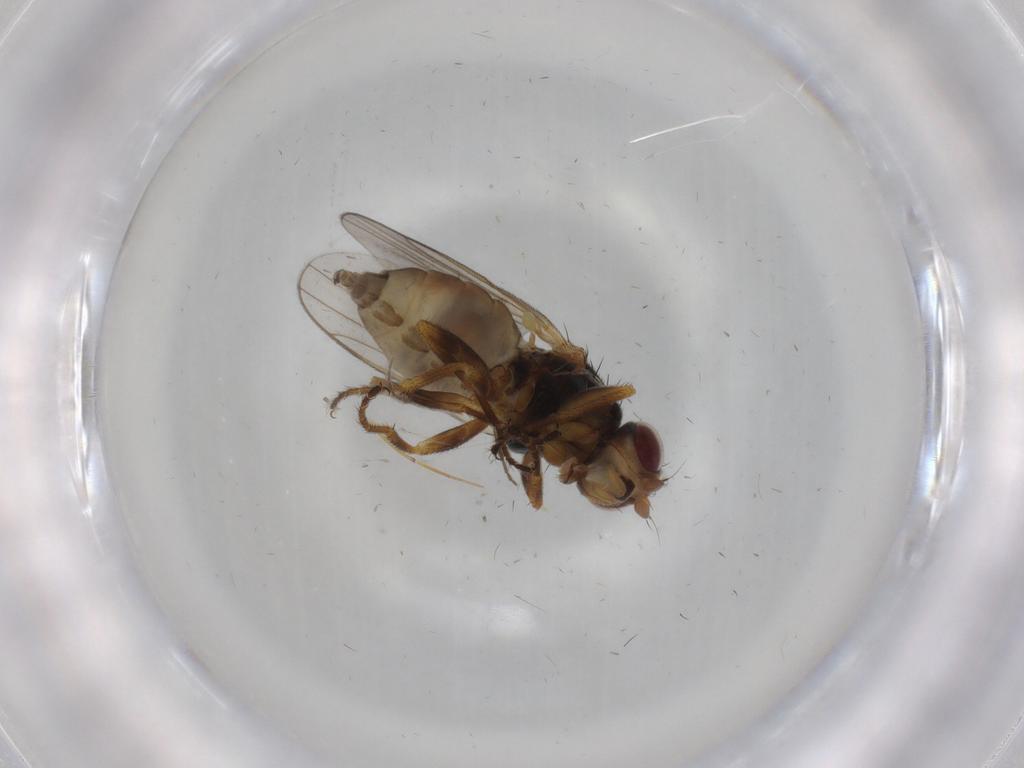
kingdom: Animalia
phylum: Arthropoda
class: Insecta
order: Diptera
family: Chloropidae
